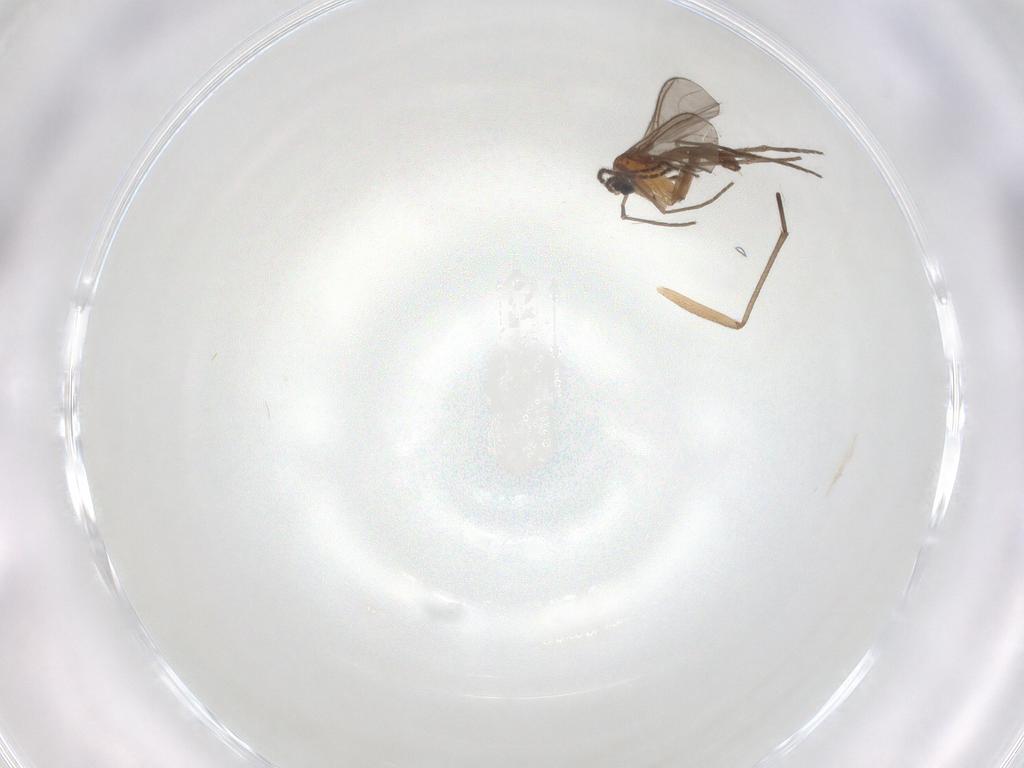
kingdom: Animalia
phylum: Arthropoda
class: Insecta
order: Diptera
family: Sciaridae
